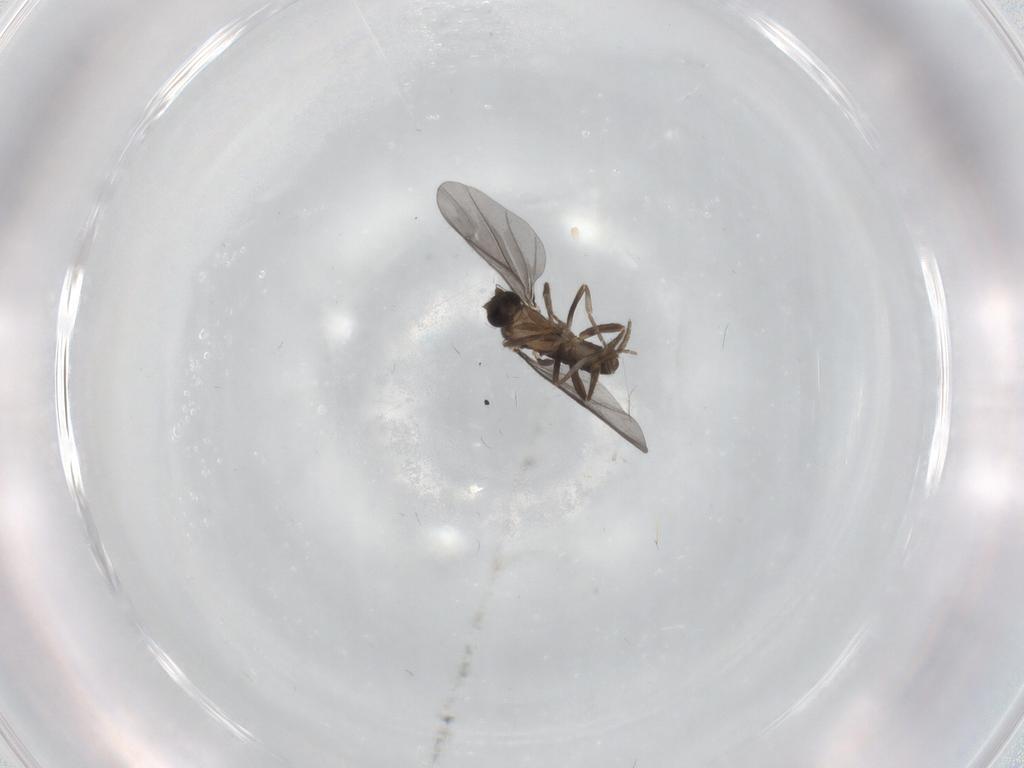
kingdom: Animalia
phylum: Arthropoda
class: Insecta
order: Diptera
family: Phoridae
